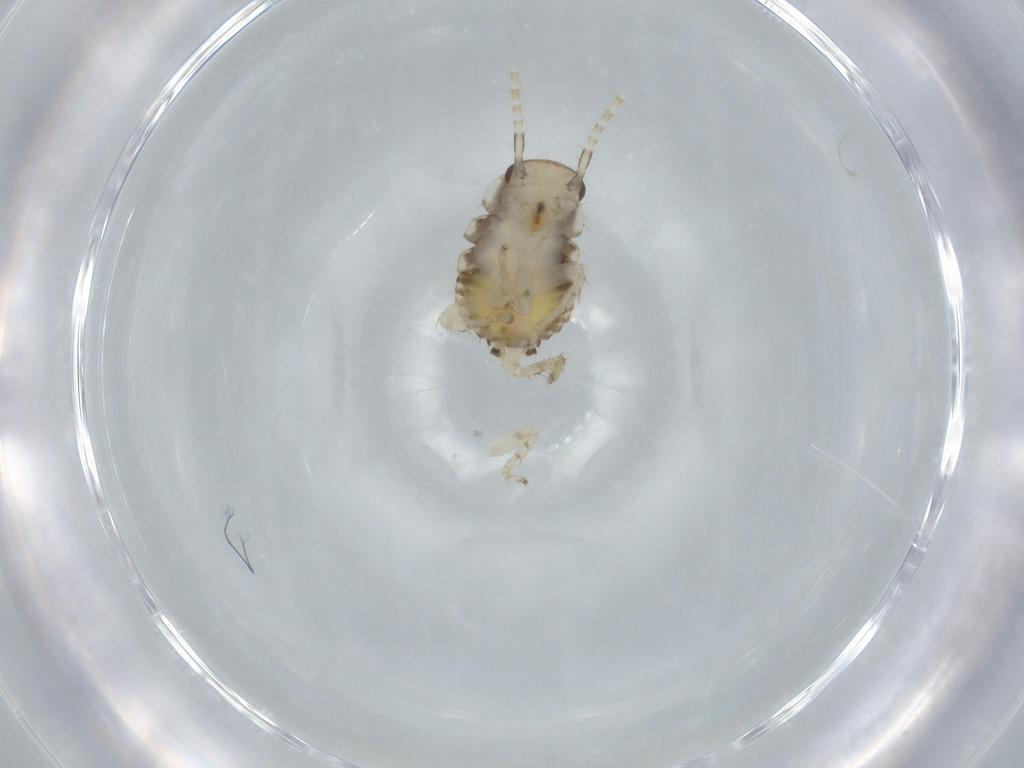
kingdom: Animalia
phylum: Arthropoda
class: Insecta
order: Blattodea
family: Ectobiidae
